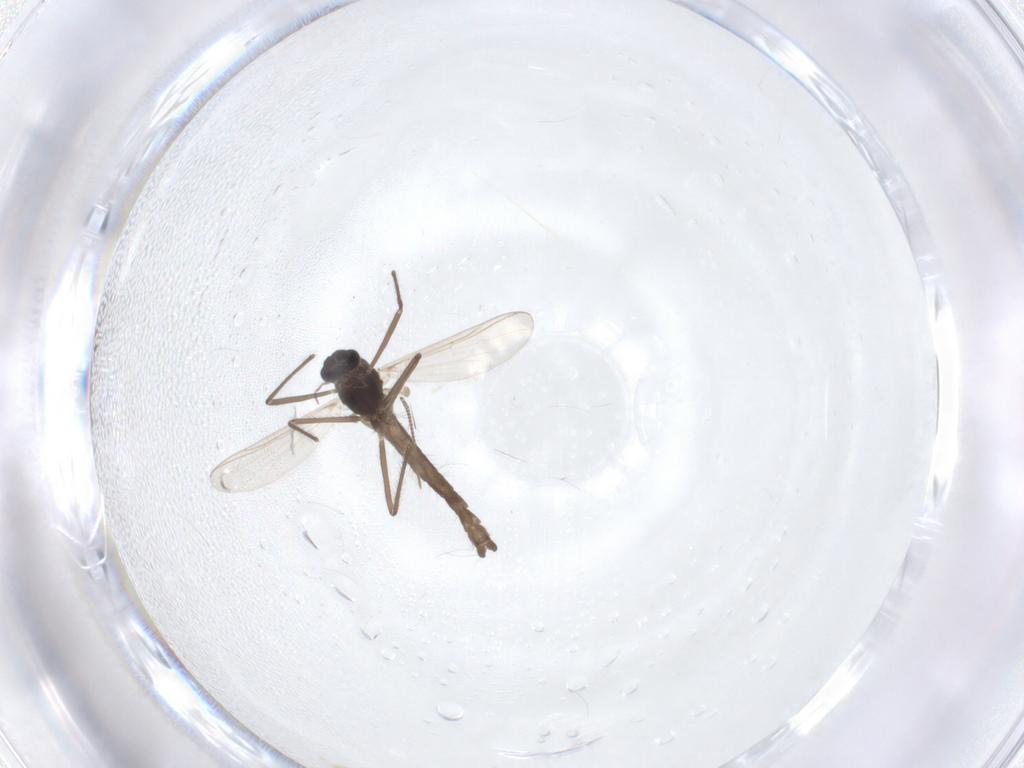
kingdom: Animalia
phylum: Arthropoda
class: Insecta
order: Diptera
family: Chironomidae
